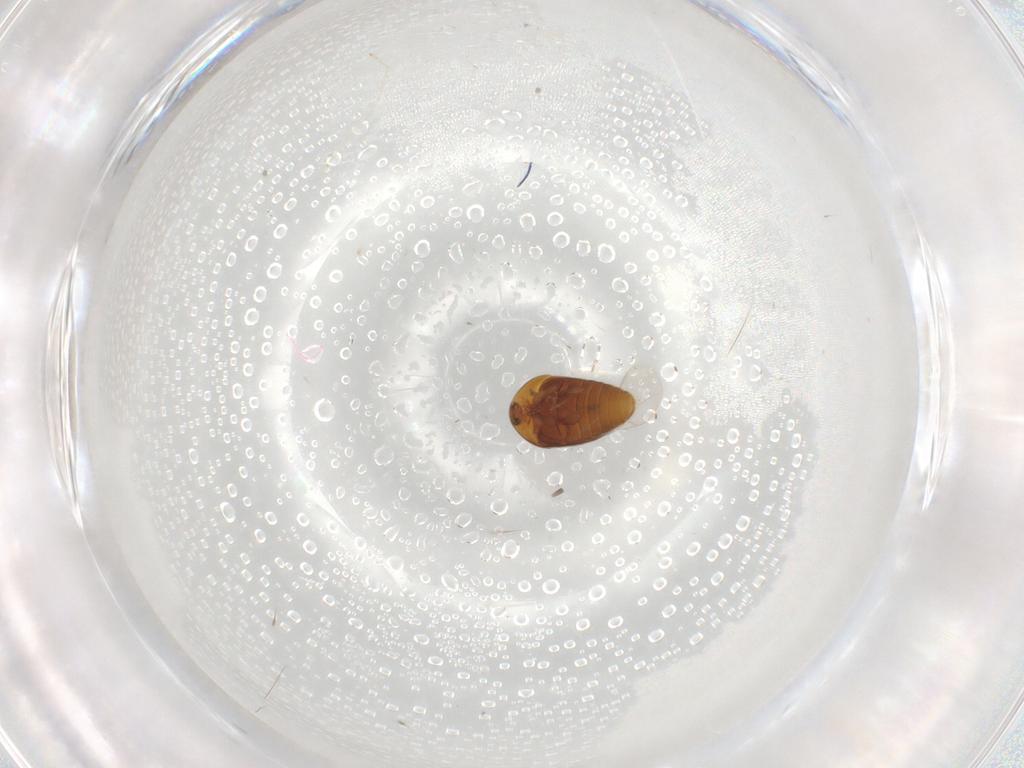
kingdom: Animalia
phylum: Arthropoda
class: Insecta
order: Coleoptera
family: Corylophidae
